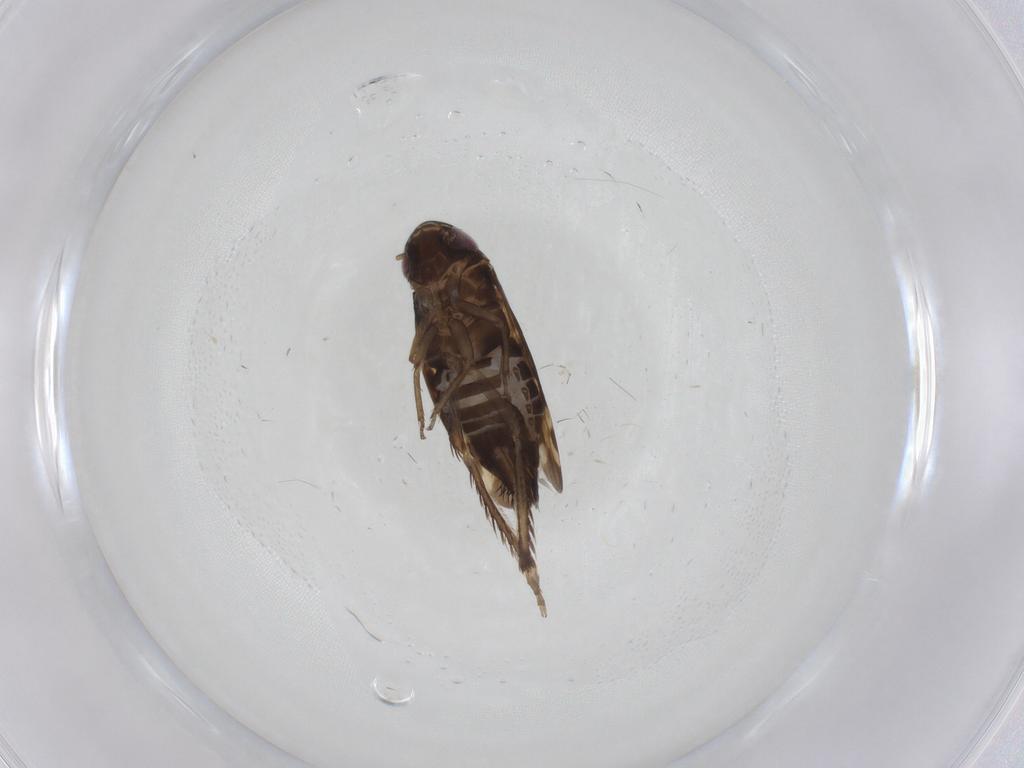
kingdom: Animalia
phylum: Arthropoda
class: Insecta
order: Hemiptera
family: Cicadellidae
